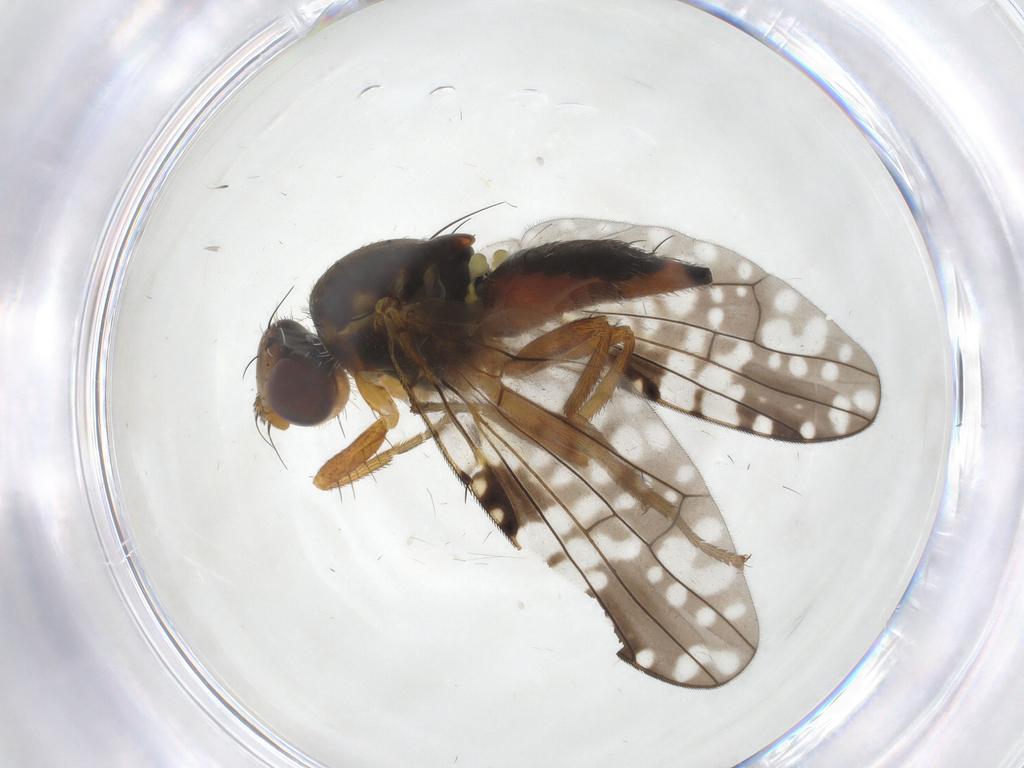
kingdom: Animalia
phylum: Arthropoda
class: Insecta
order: Diptera
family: Tephritidae
